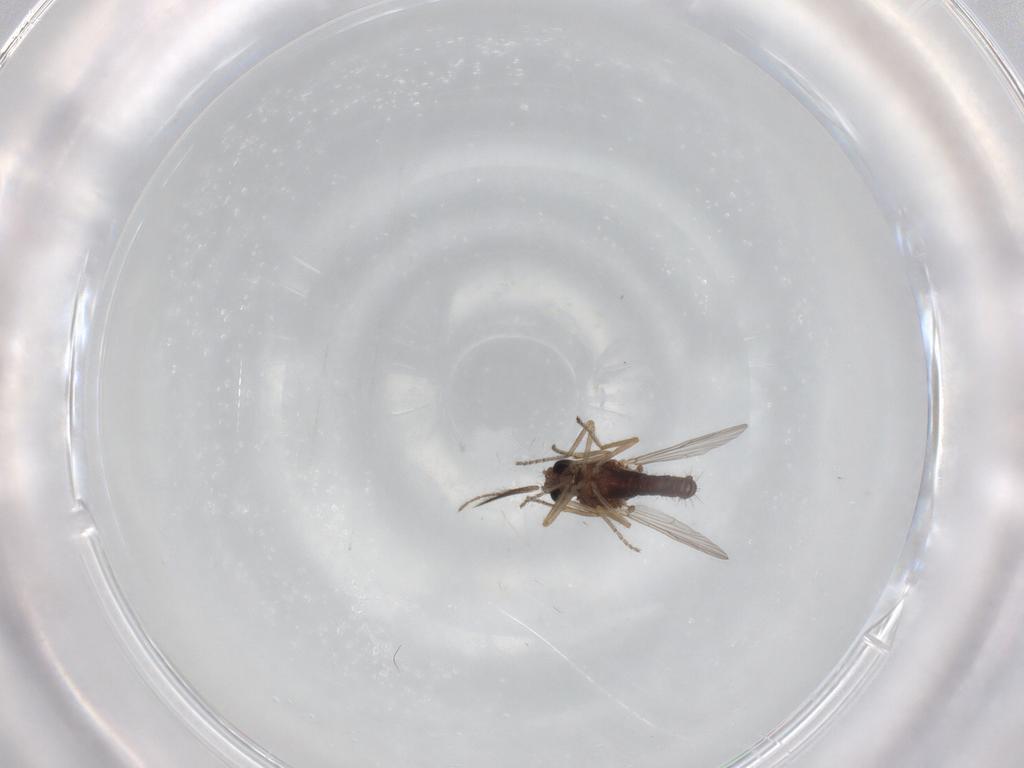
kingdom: Animalia
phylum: Arthropoda
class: Insecta
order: Diptera
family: Ceratopogonidae
